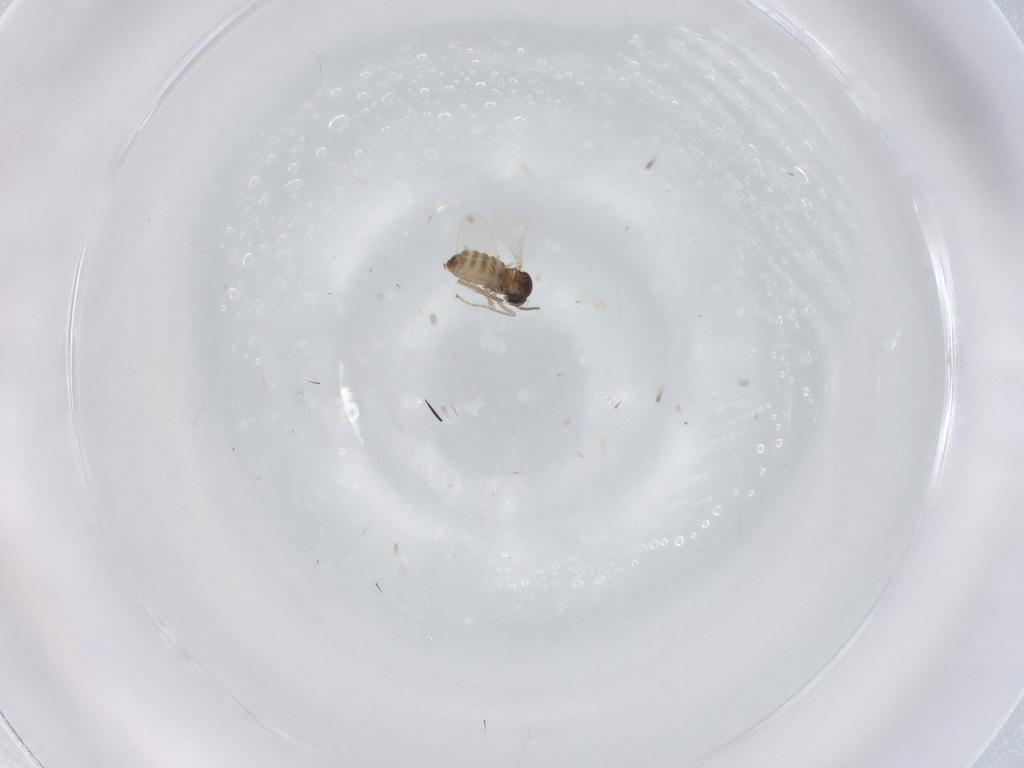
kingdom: Animalia
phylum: Arthropoda
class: Insecta
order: Diptera
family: Cecidomyiidae
